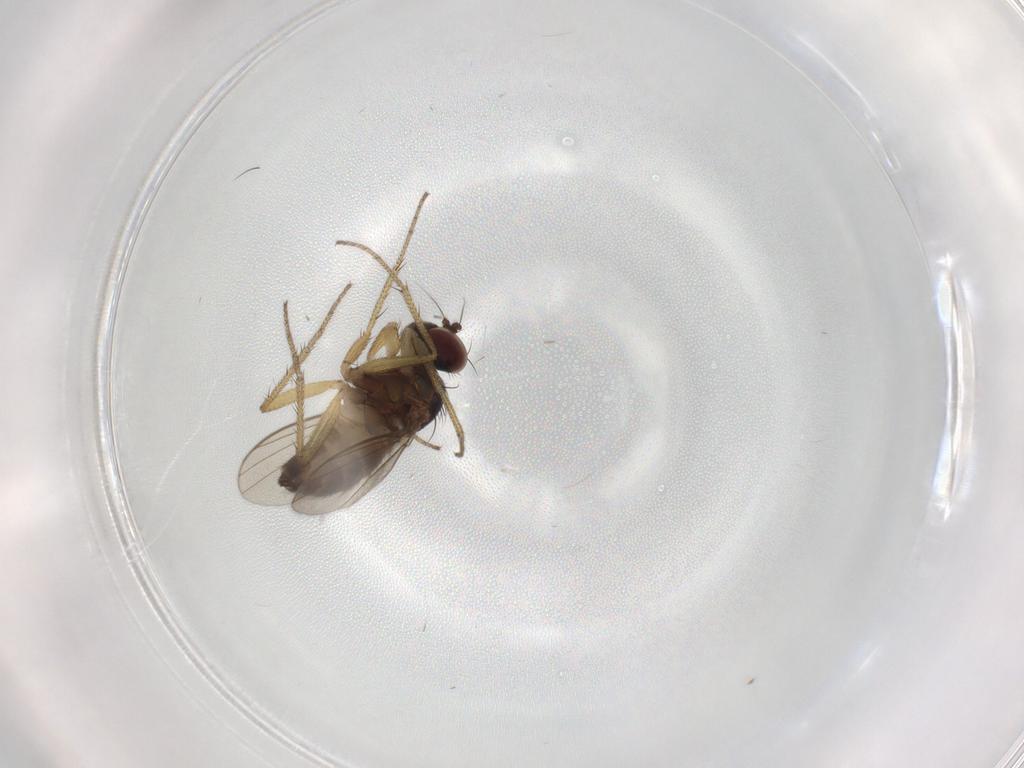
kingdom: Animalia
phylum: Arthropoda
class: Insecta
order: Diptera
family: Dolichopodidae
